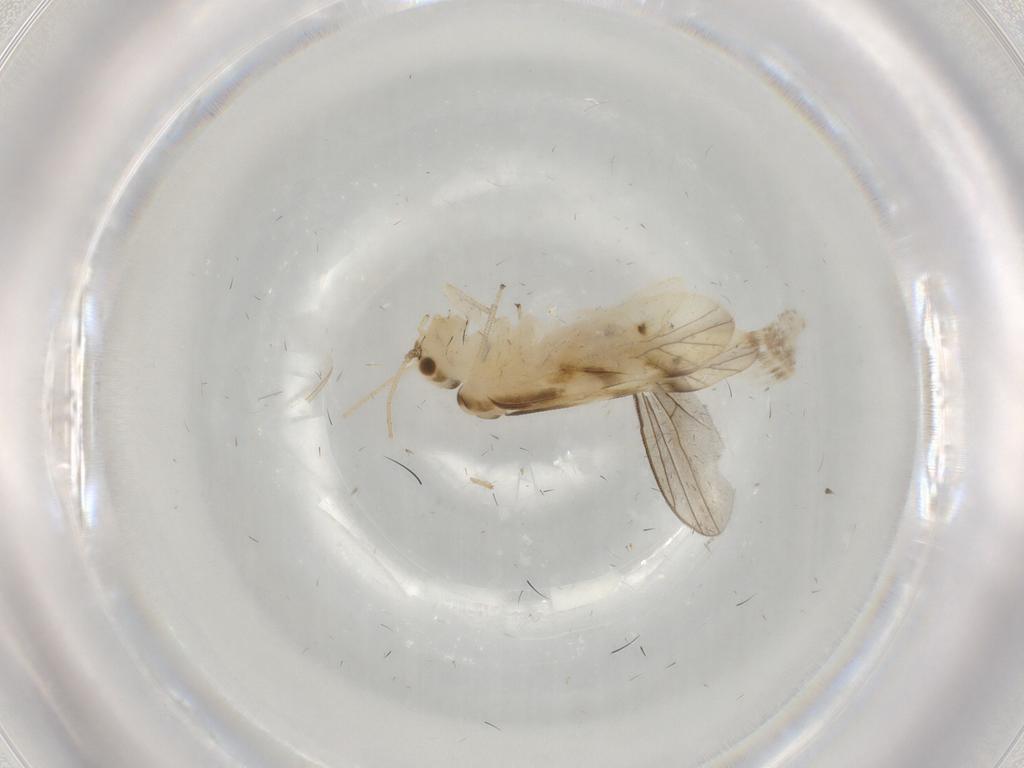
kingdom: Animalia
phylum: Arthropoda
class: Insecta
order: Psocodea
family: Caeciliusidae
